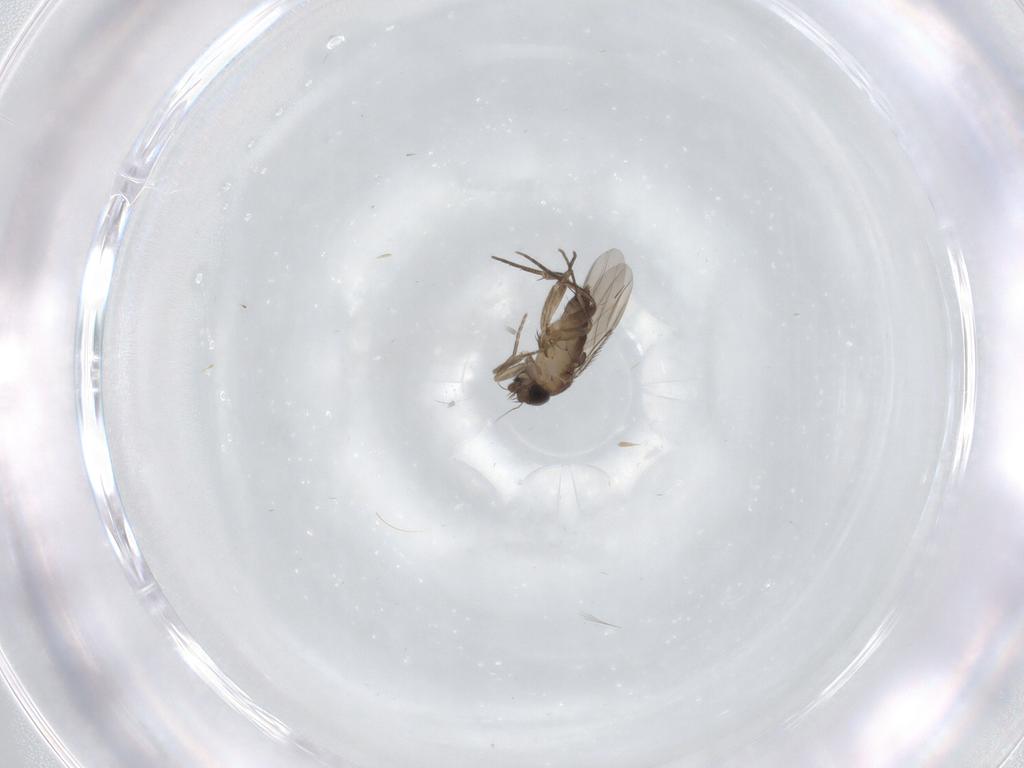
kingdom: Animalia
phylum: Arthropoda
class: Insecta
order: Diptera
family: Phoridae
